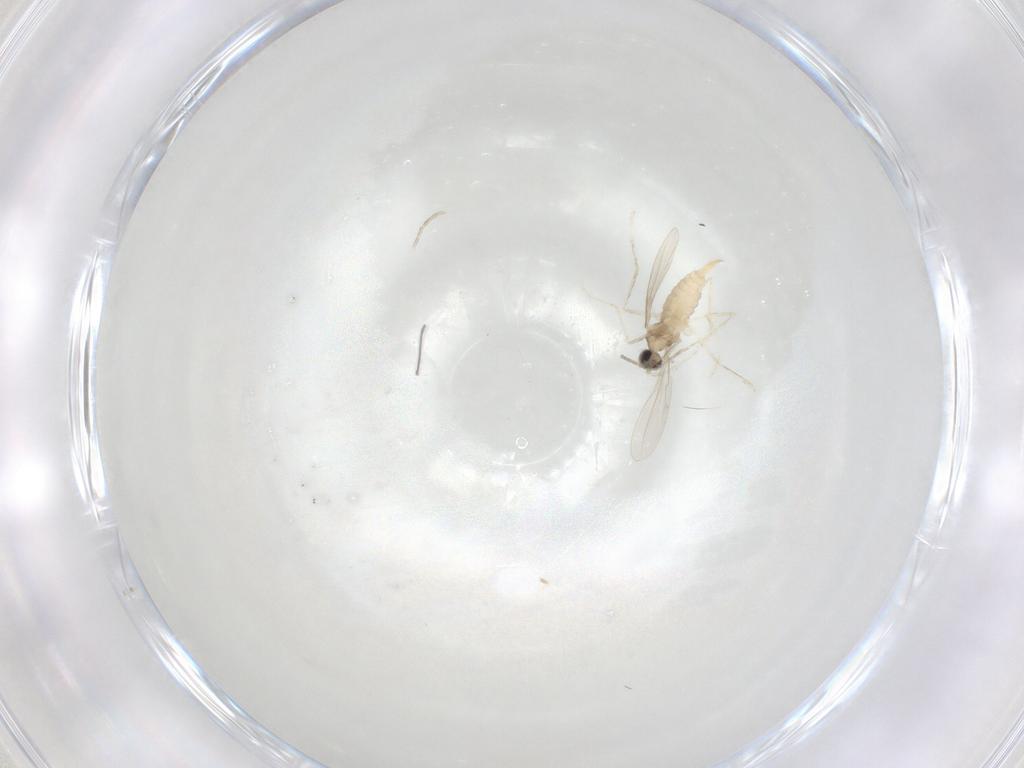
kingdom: Animalia
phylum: Arthropoda
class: Insecta
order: Diptera
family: Cecidomyiidae
